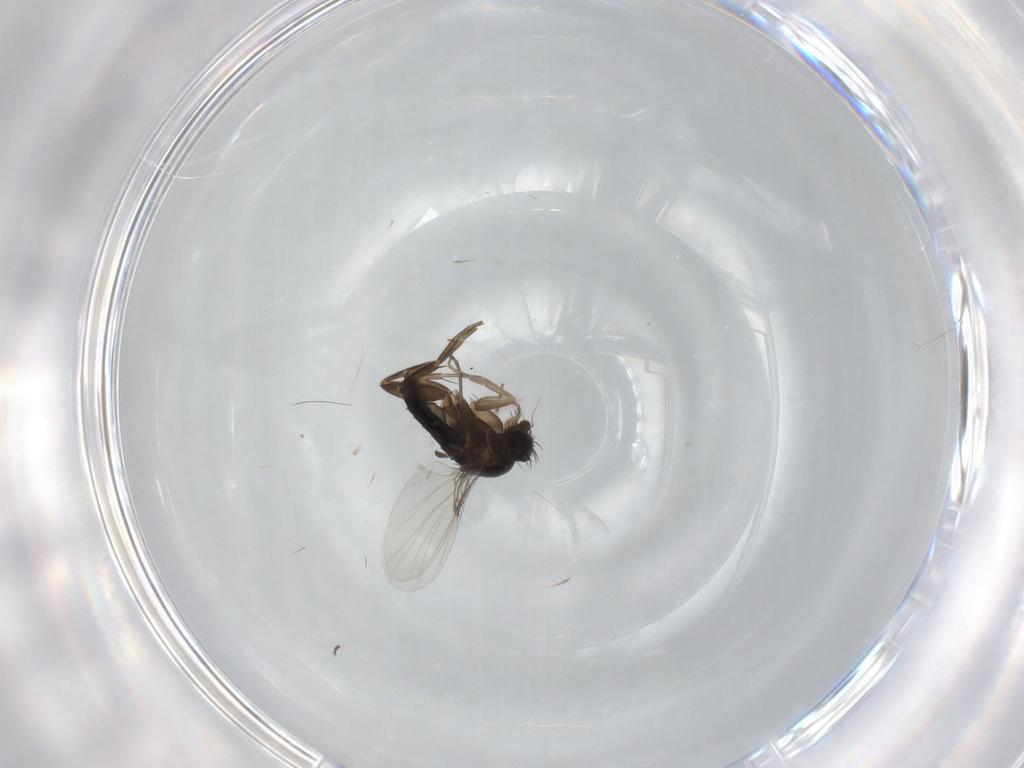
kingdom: Animalia
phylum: Arthropoda
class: Insecta
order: Diptera
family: Phoridae
